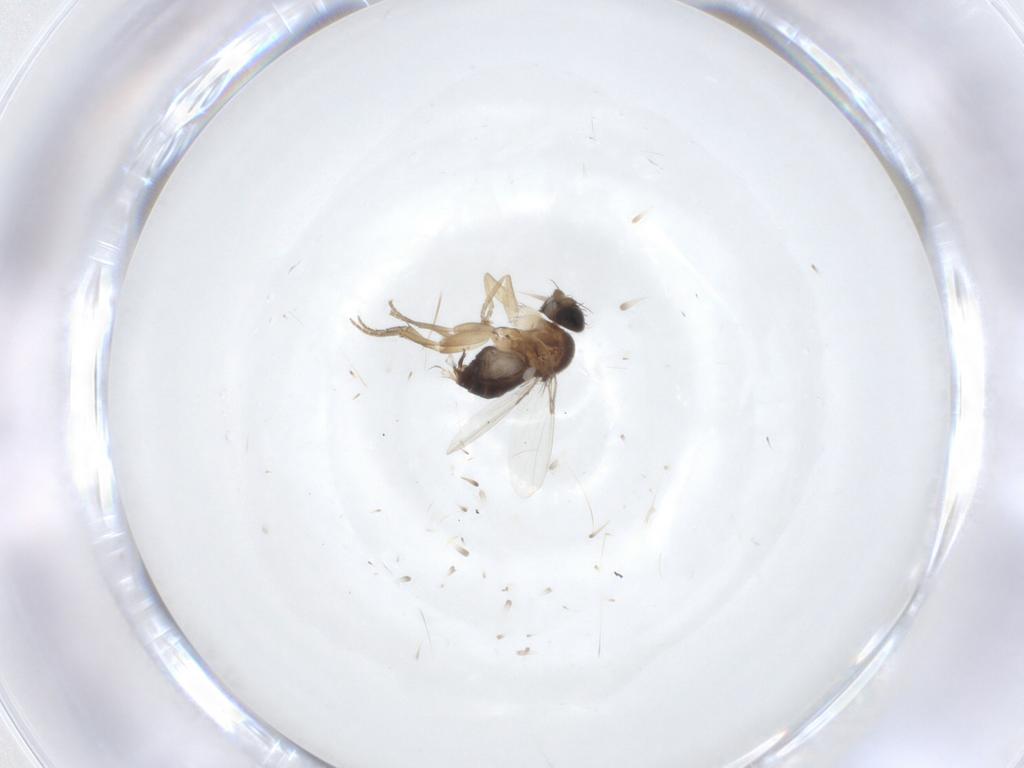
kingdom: Animalia
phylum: Arthropoda
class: Insecta
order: Diptera
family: Phoridae
